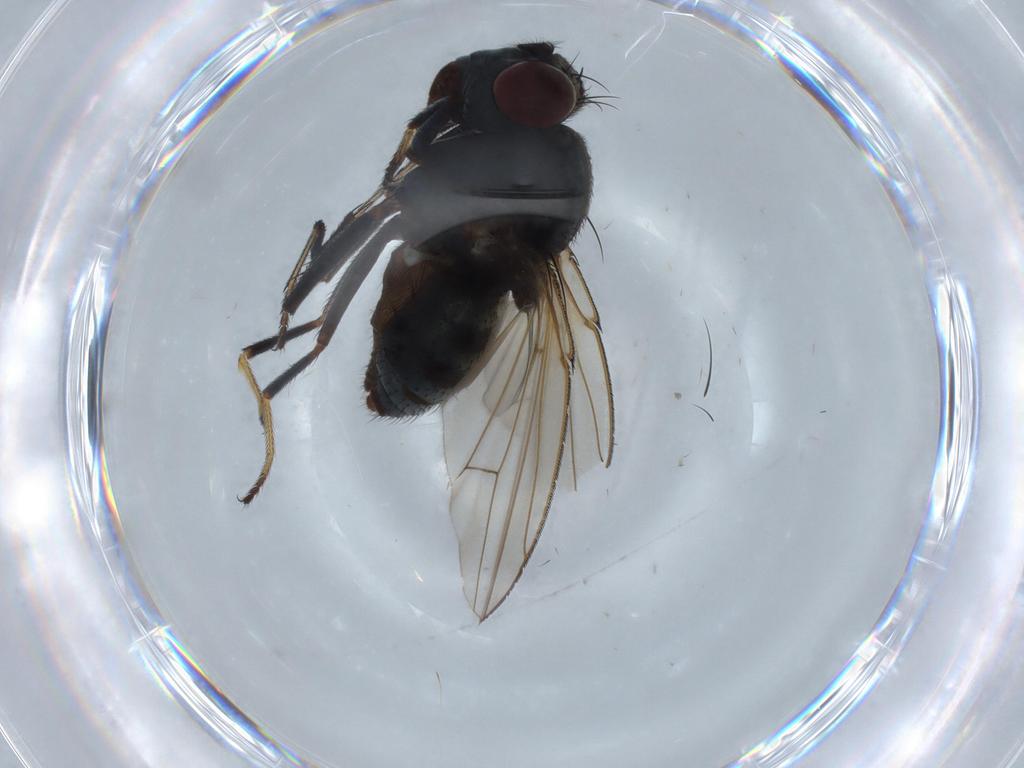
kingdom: Animalia
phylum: Arthropoda
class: Insecta
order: Diptera
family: Ephydridae
